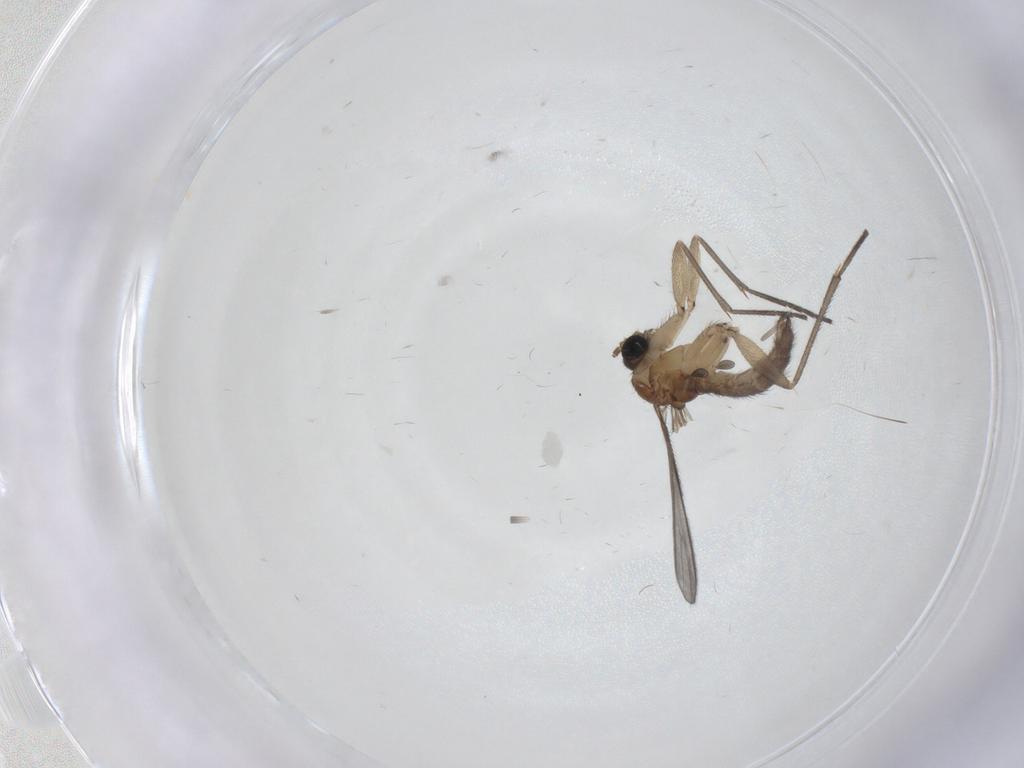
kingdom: Animalia
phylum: Arthropoda
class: Insecta
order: Diptera
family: Sciaridae
